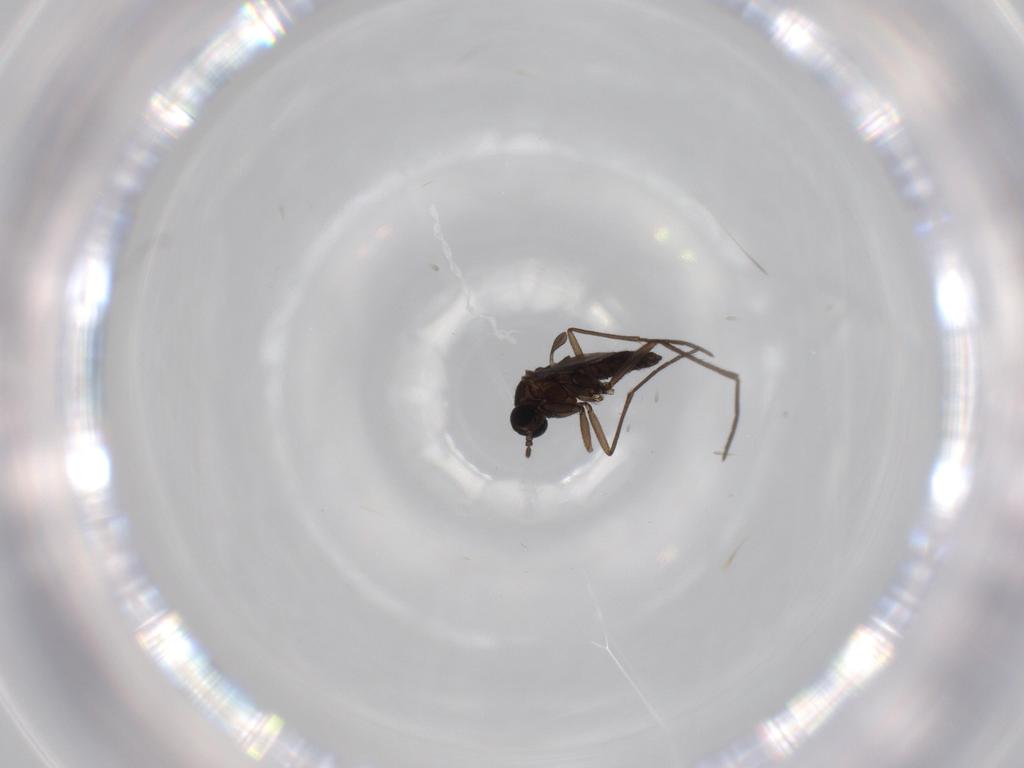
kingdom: Animalia
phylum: Arthropoda
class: Insecta
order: Diptera
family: Sciaridae
